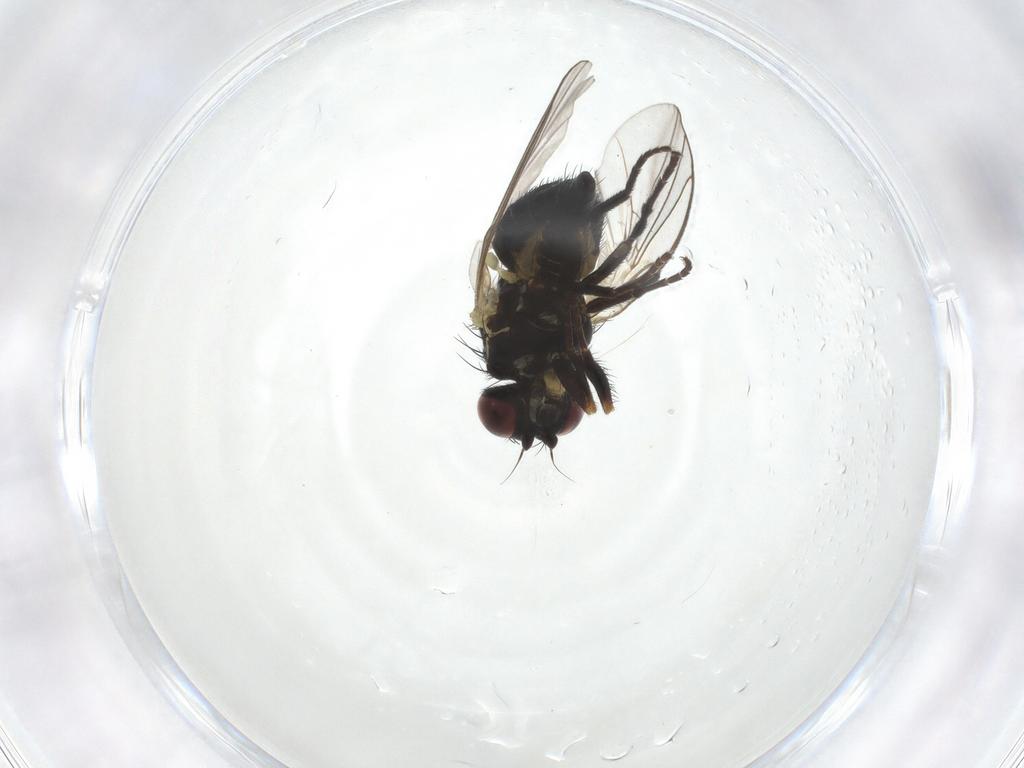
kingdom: Animalia
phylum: Arthropoda
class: Insecta
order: Diptera
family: Agromyzidae
